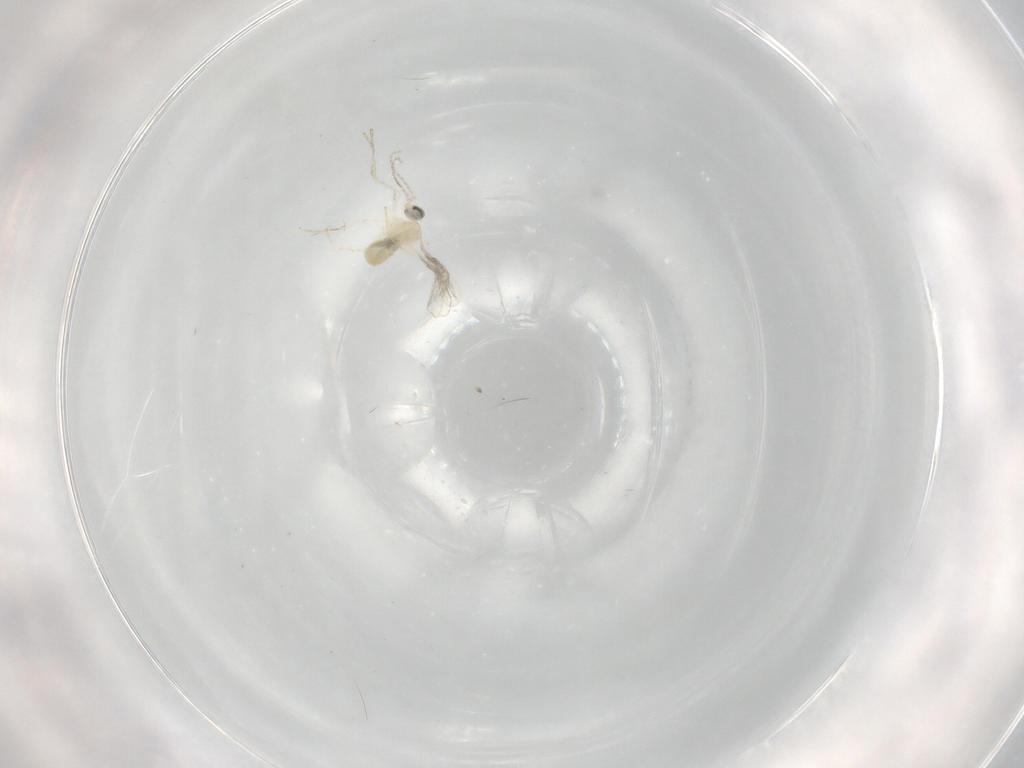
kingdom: Animalia
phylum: Arthropoda
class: Insecta
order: Diptera
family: Cecidomyiidae
